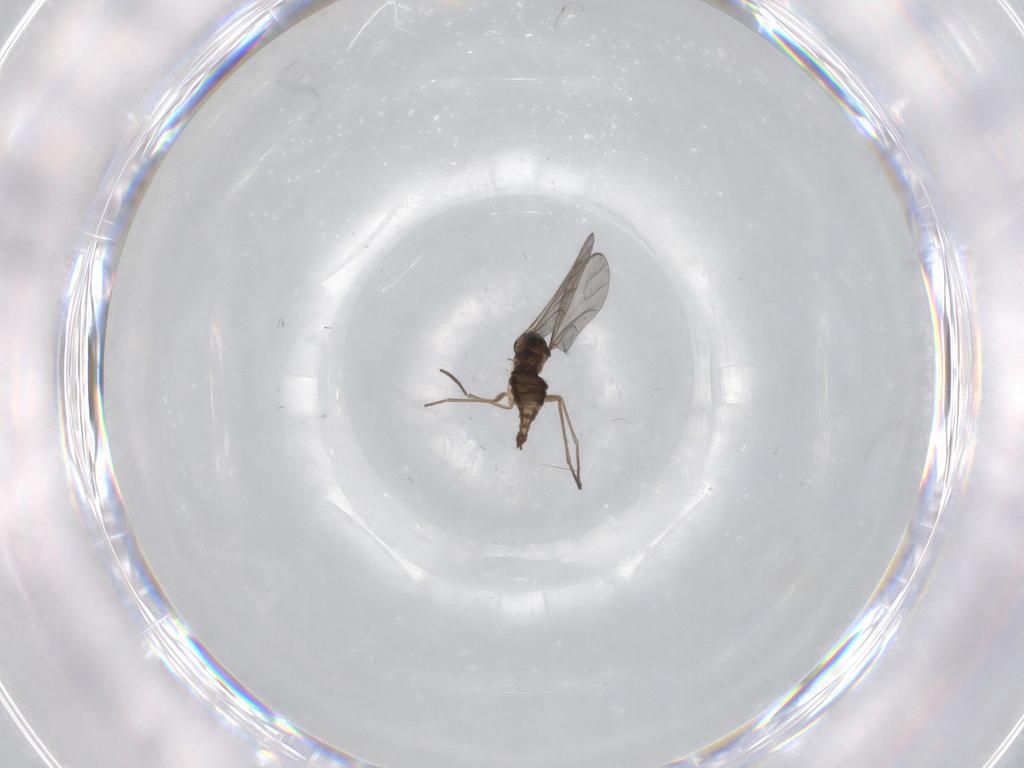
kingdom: Animalia
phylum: Arthropoda
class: Insecta
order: Diptera
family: Sciaridae
